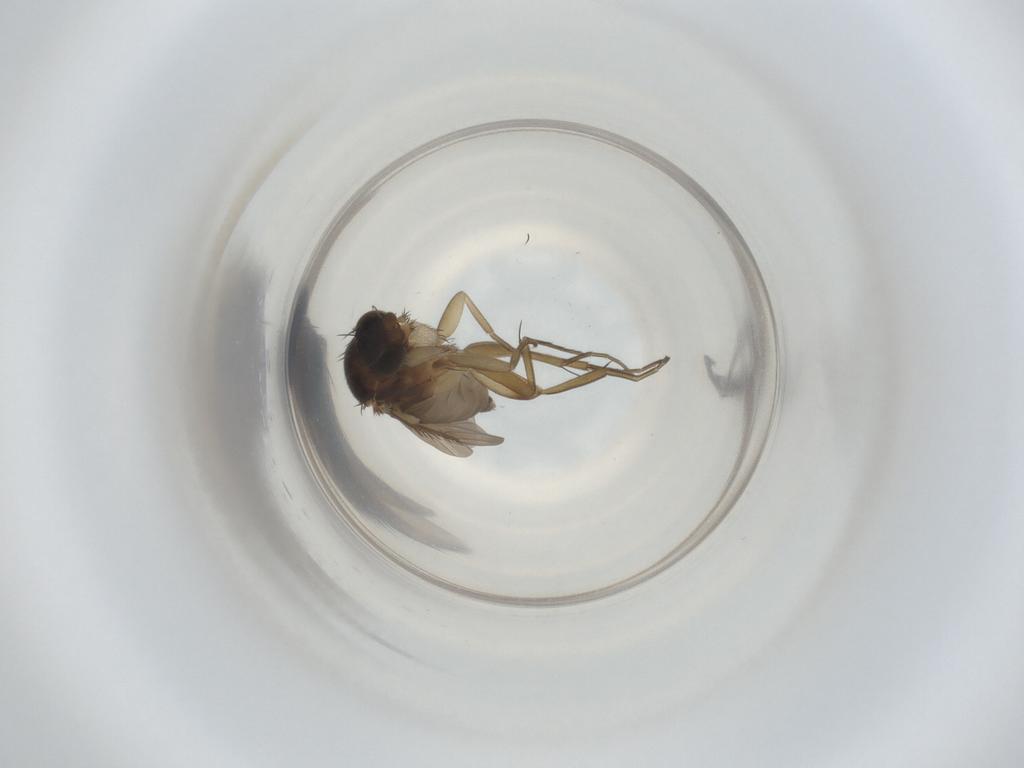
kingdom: Animalia
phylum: Arthropoda
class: Insecta
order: Diptera
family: Phoridae
